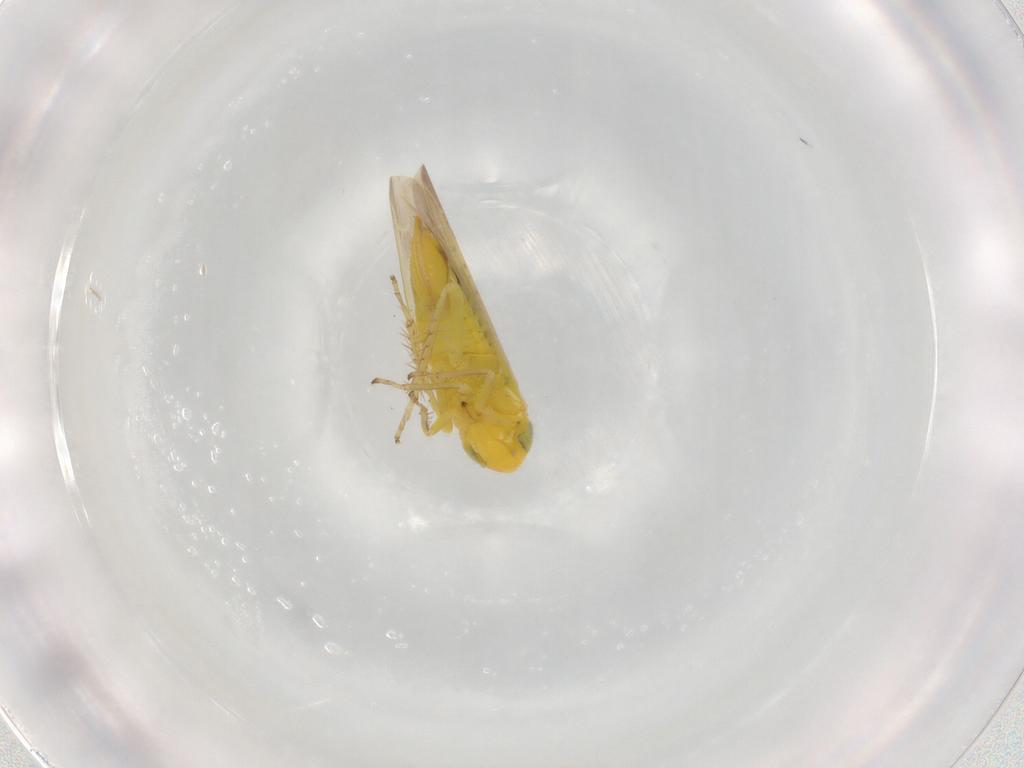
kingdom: Animalia
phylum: Arthropoda
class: Insecta
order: Hemiptera
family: Cicadellidae
